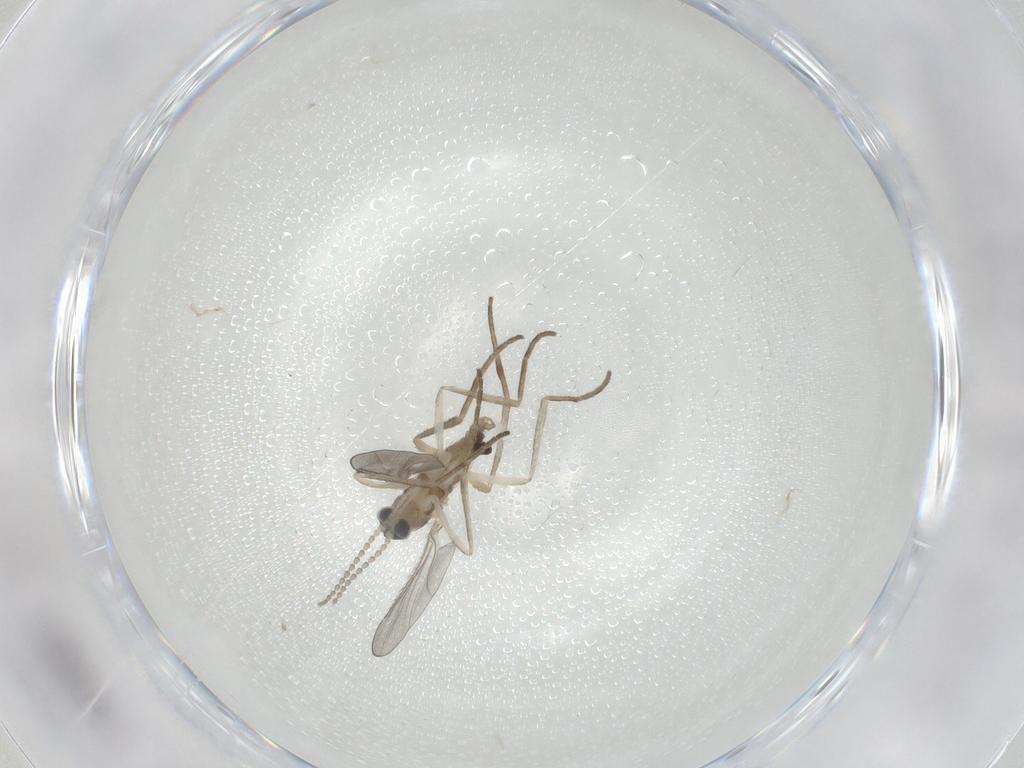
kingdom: Animalia
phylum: Arthropoda
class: Insecta
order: Diptera
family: Cecidomyiidae
